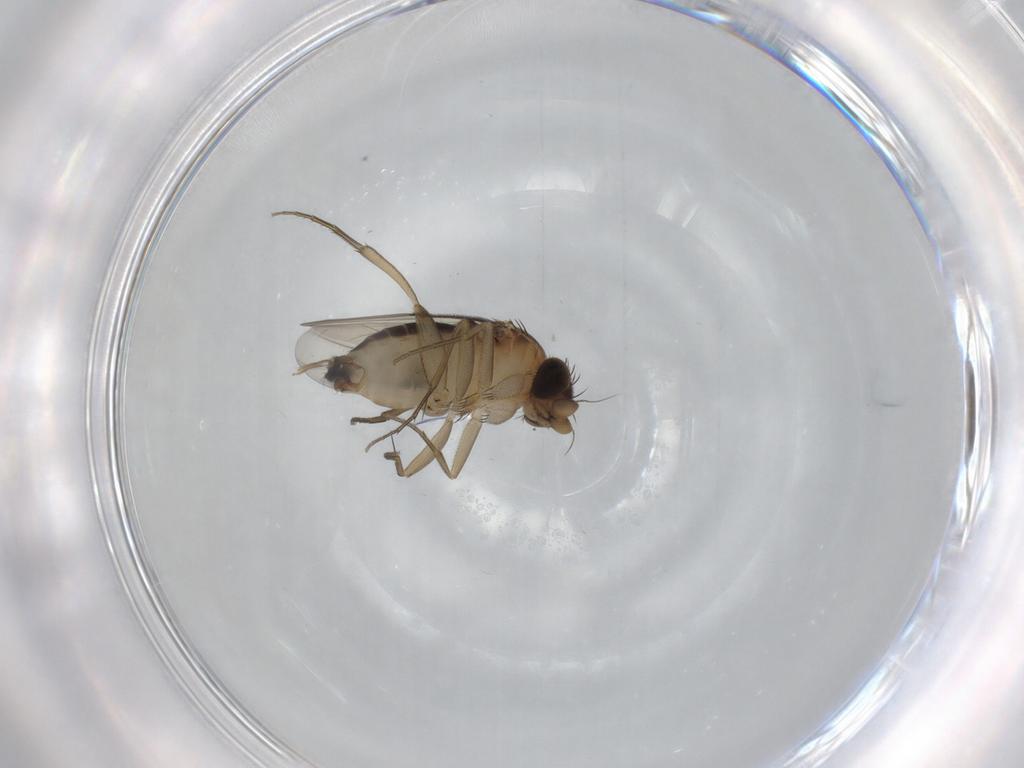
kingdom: Animalia
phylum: Arthropoda
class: Insecta
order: Diptera
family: Phoridae
